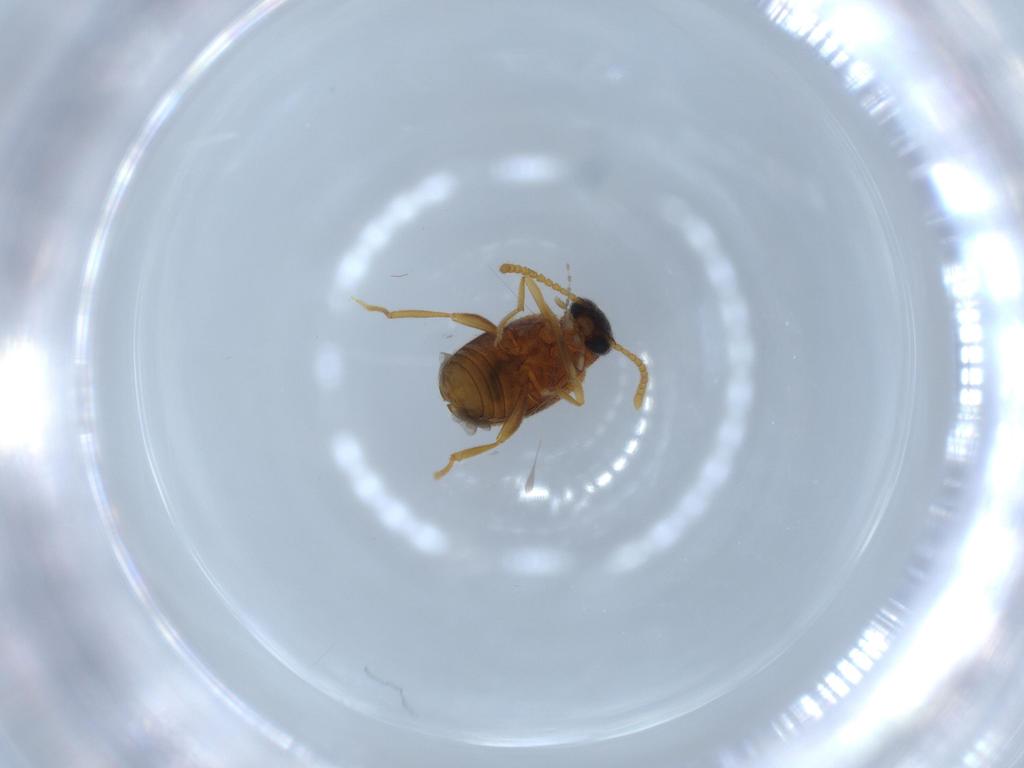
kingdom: Animalia
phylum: Arthropoda
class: Insecta
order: Coleoptera
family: Aderidae
